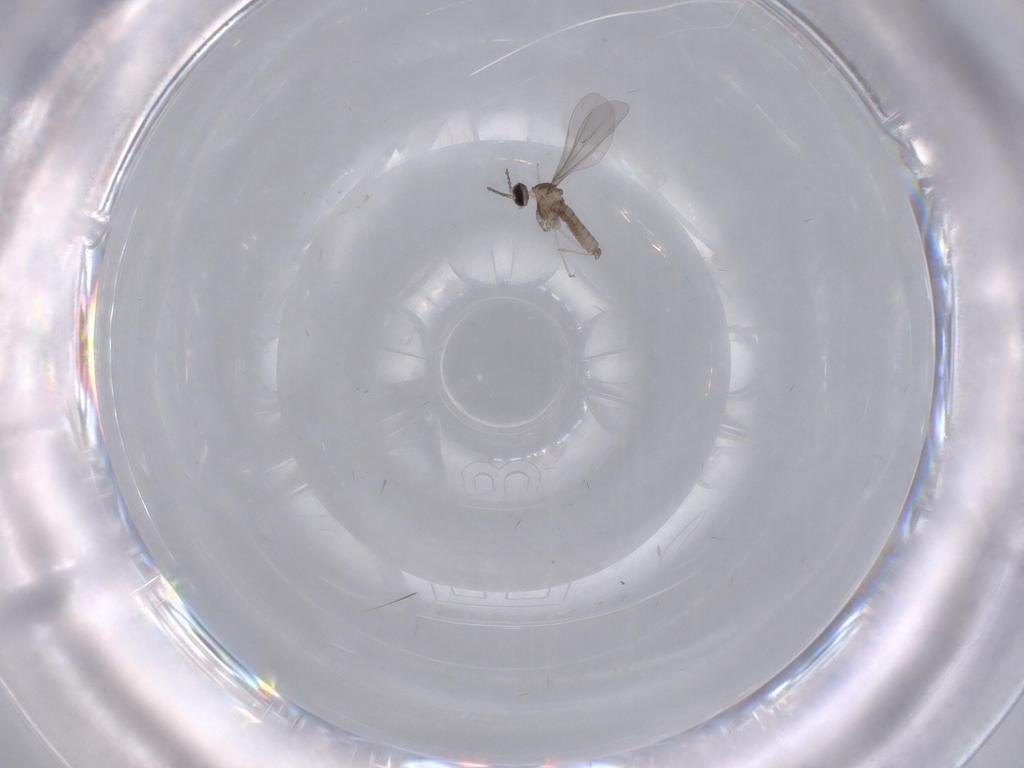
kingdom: Animalia
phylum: Arthropoda
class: Insecta
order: Diptera
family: Cecidomyiidae
